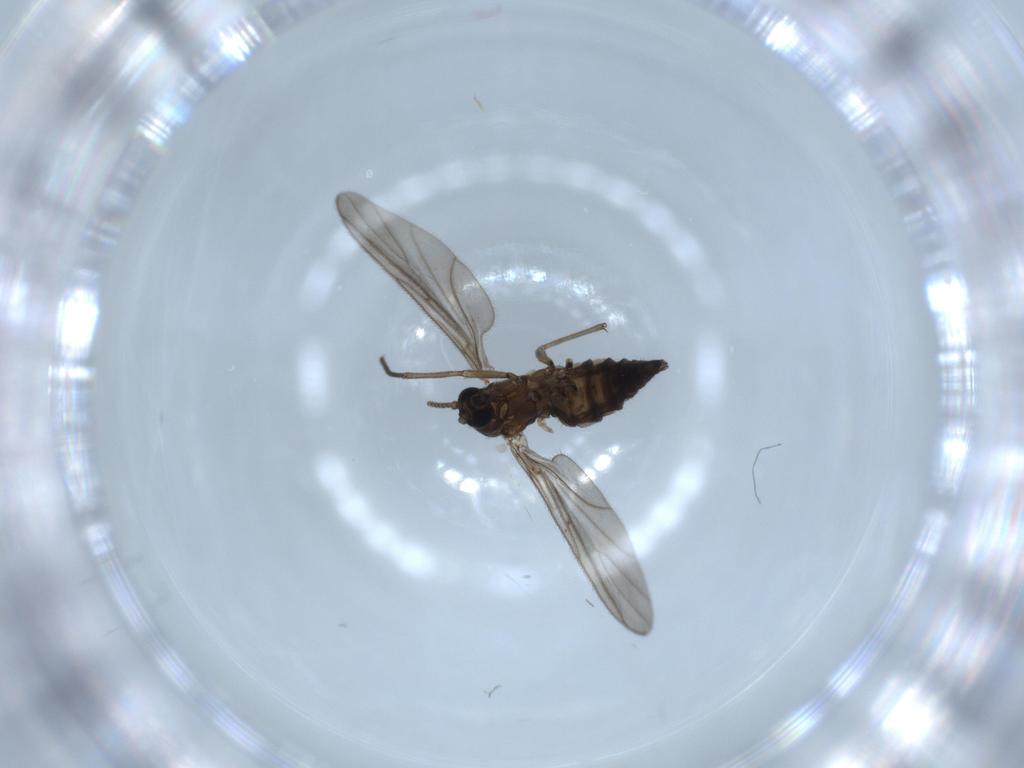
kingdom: Animalia
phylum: Arthropoda
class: Insecta
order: Diptera
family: Sciaridae
